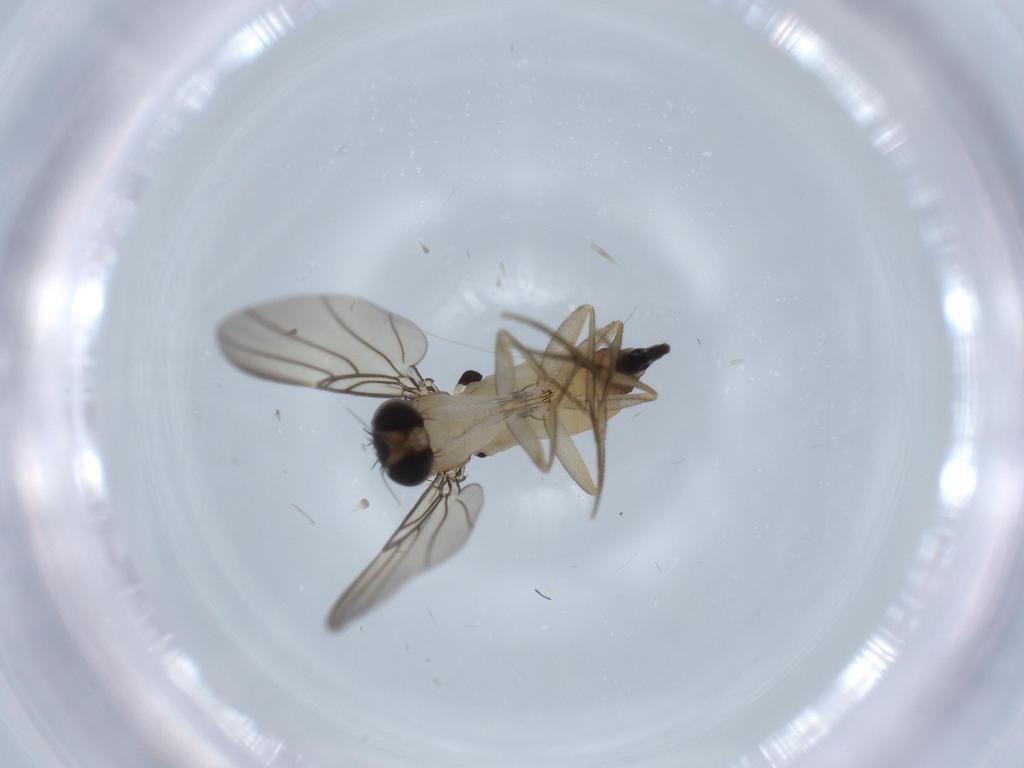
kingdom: Animalia
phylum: Arthropoda
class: Insecta
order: Diptera
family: Phoridae
